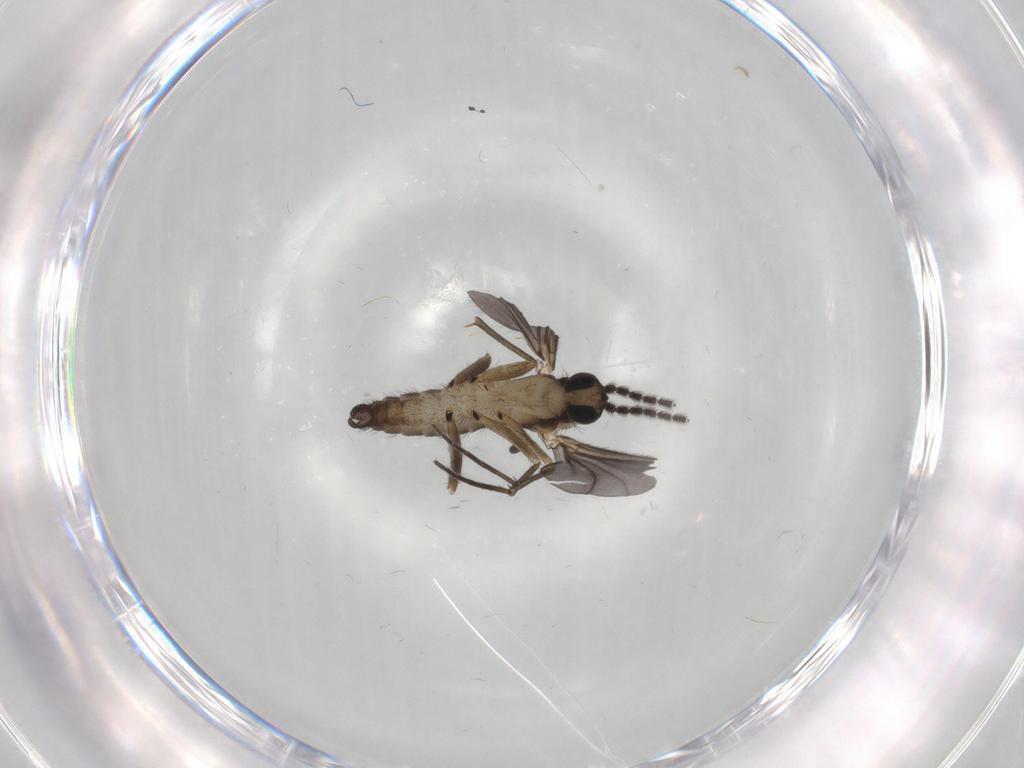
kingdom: Animalia
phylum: Arthropoda
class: Insecta
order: Diptera
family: Sciaridae
